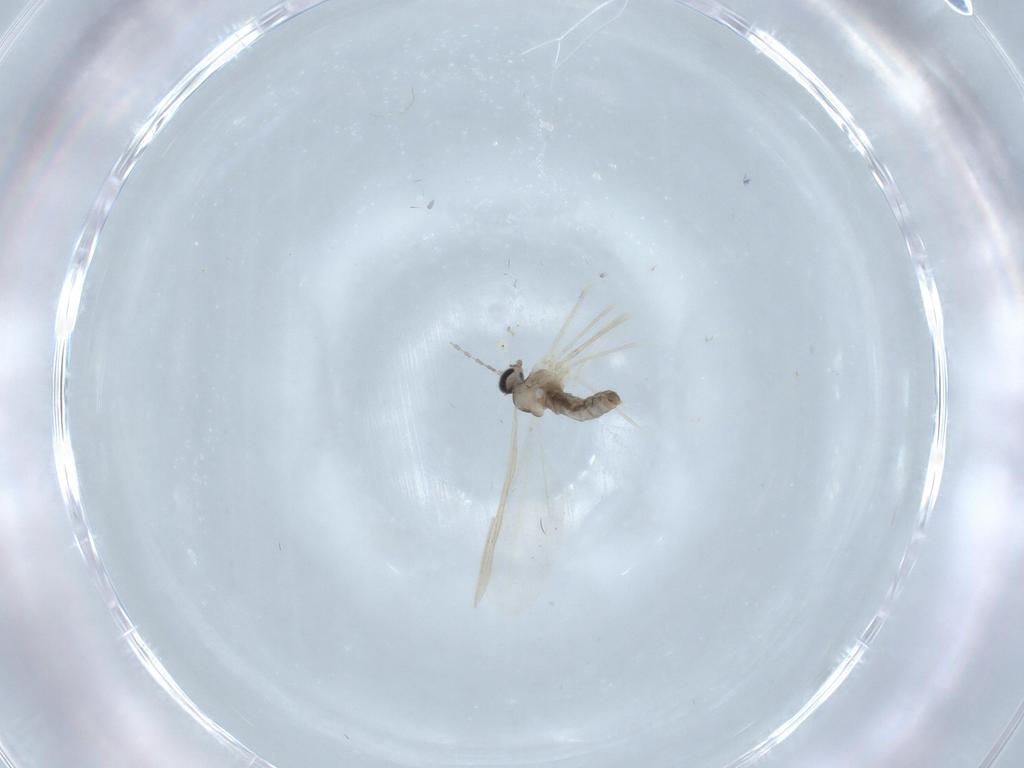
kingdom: Animalia
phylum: Arthropoda
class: Insecta
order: Diptera
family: Cecidomyiidae
